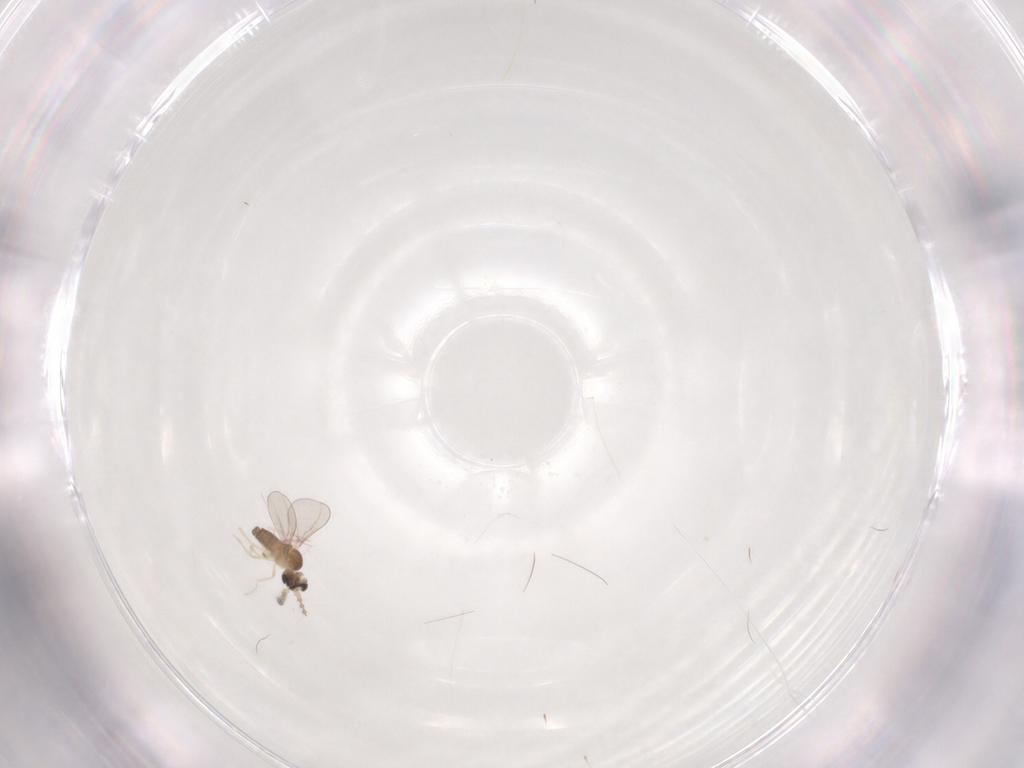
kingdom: Animalia
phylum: Arthropoda
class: Insecta
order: Diptera
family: Cecidomyiidae
